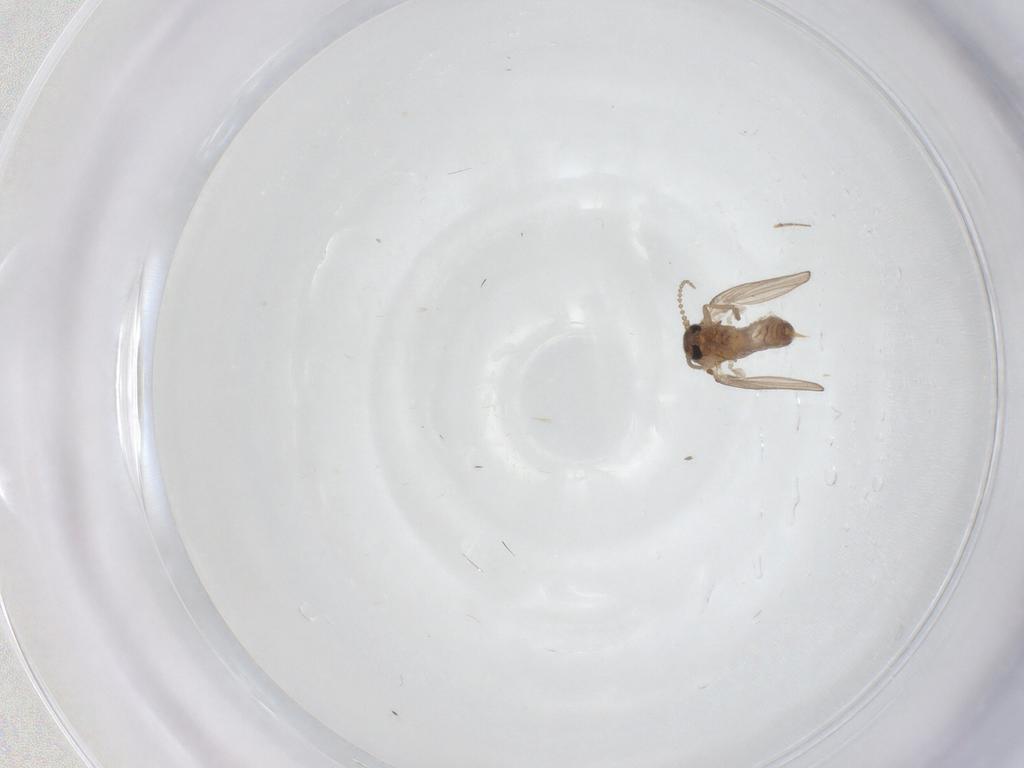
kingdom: Animalia
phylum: Arthropoda
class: Insecta
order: Diptera
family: Psychodidae
